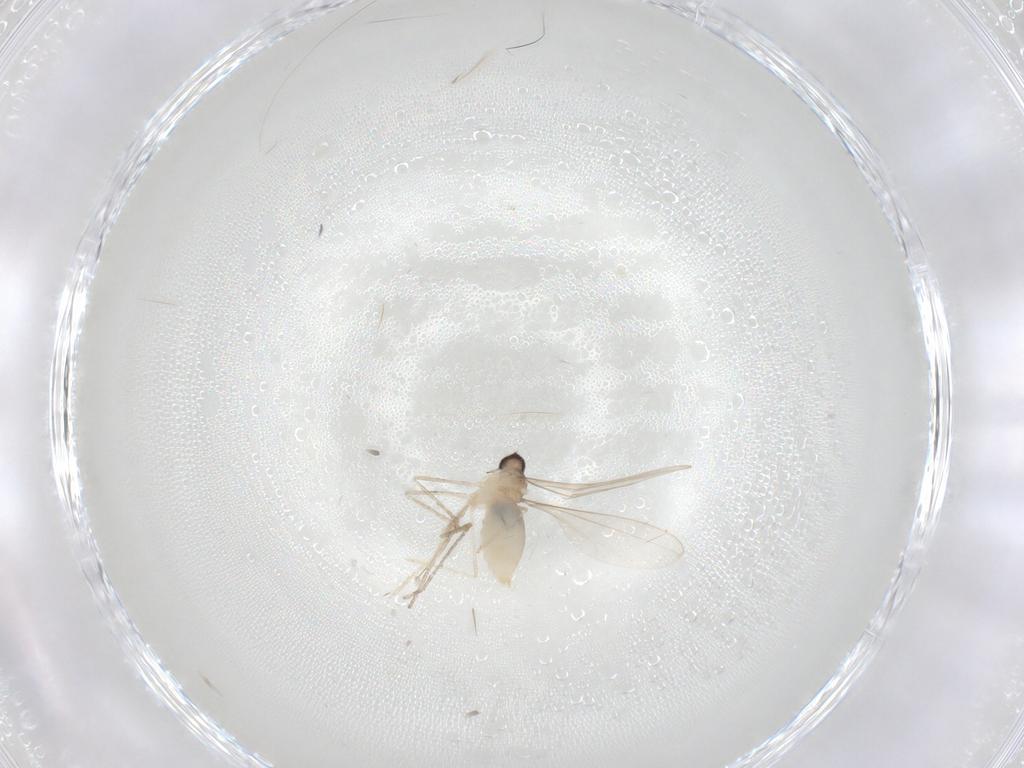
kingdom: Animalia
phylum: Arthropoda
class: Insecta
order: Diptera
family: Cecidomyiidae
